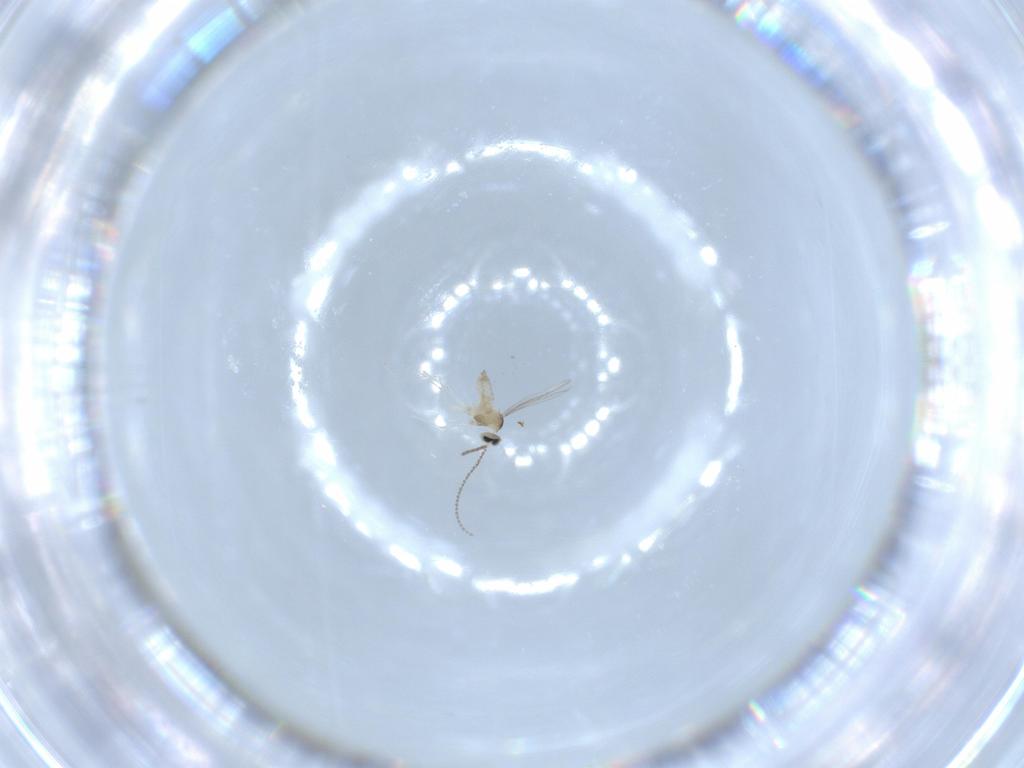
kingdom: Animalia
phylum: Arthropoda
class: Insecta
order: Diptera
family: Cecidomyiidae
